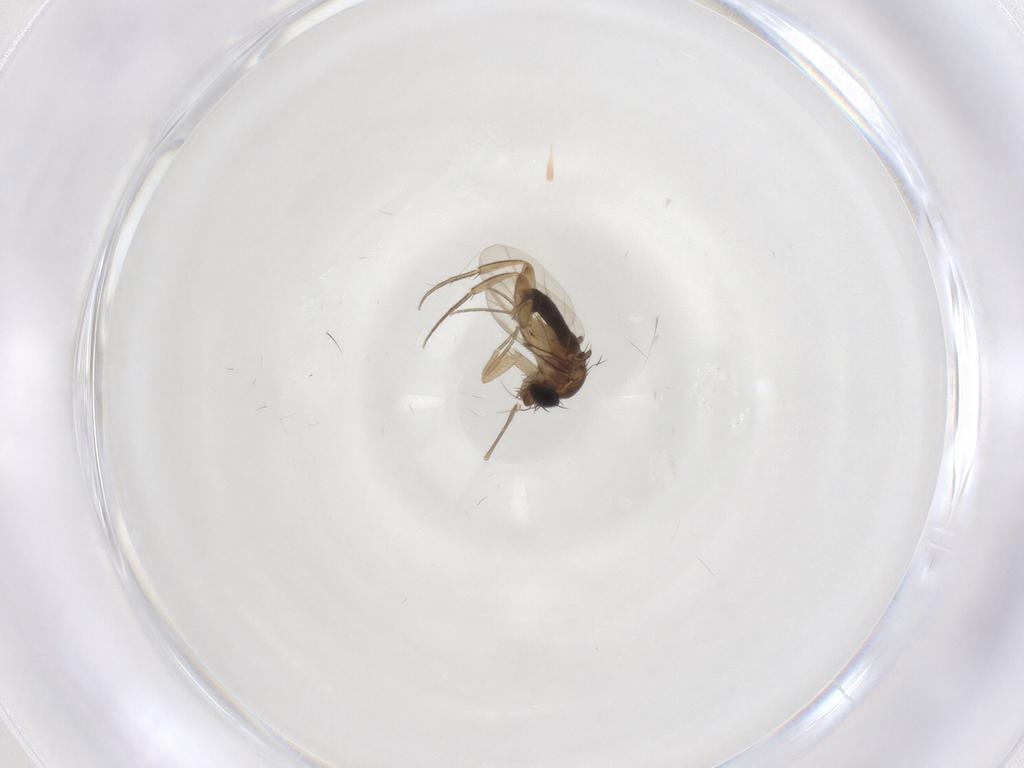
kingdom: Animalia
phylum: Arthropoda
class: Insecta
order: Diptera
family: Phoridae
